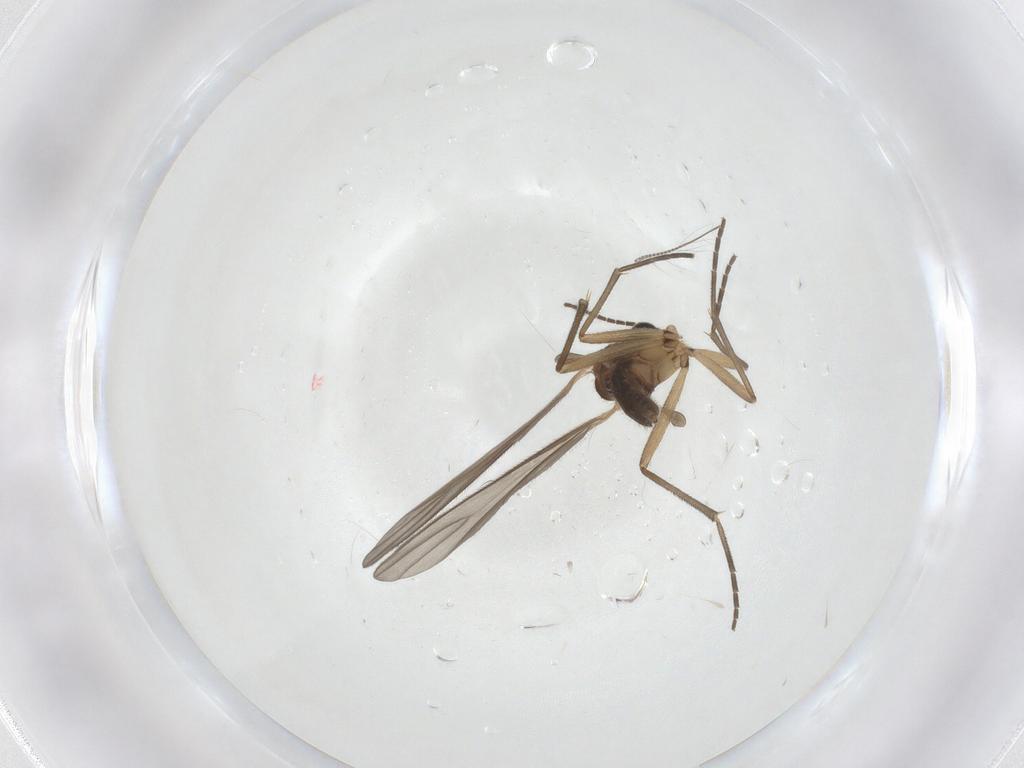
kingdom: Animalia
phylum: Arthropoda
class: Insecta
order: Diptera
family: Sciaridae
